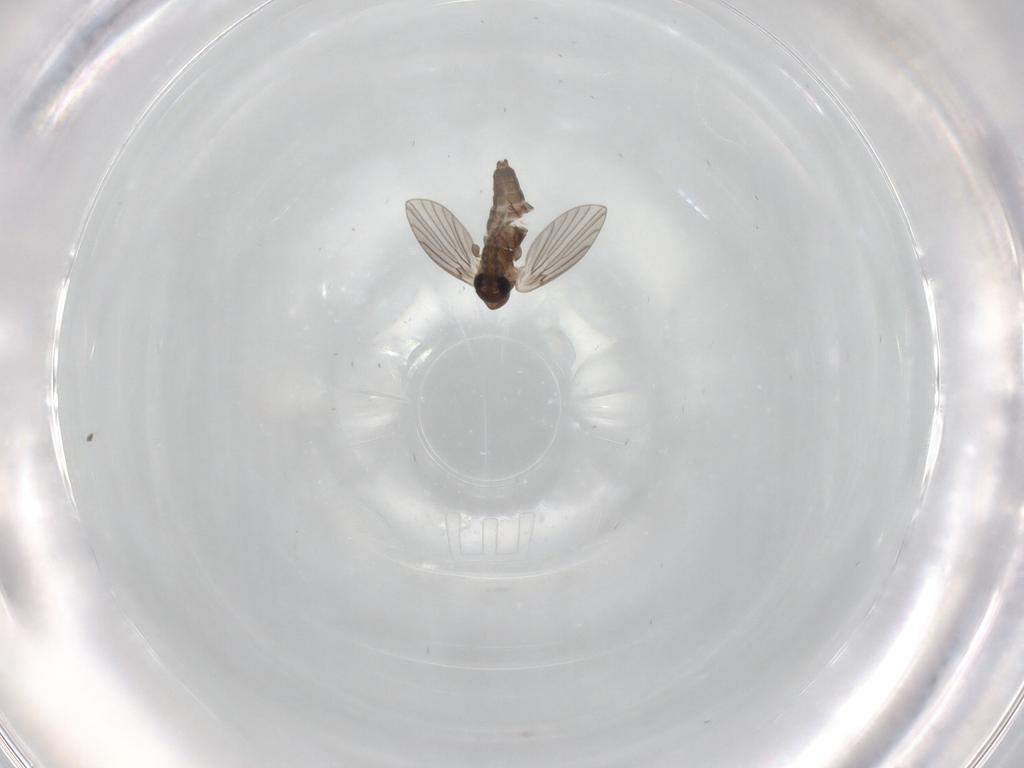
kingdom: Animalia
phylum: Arthropoda
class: Insecta
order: Diptera
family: Psychodidae
